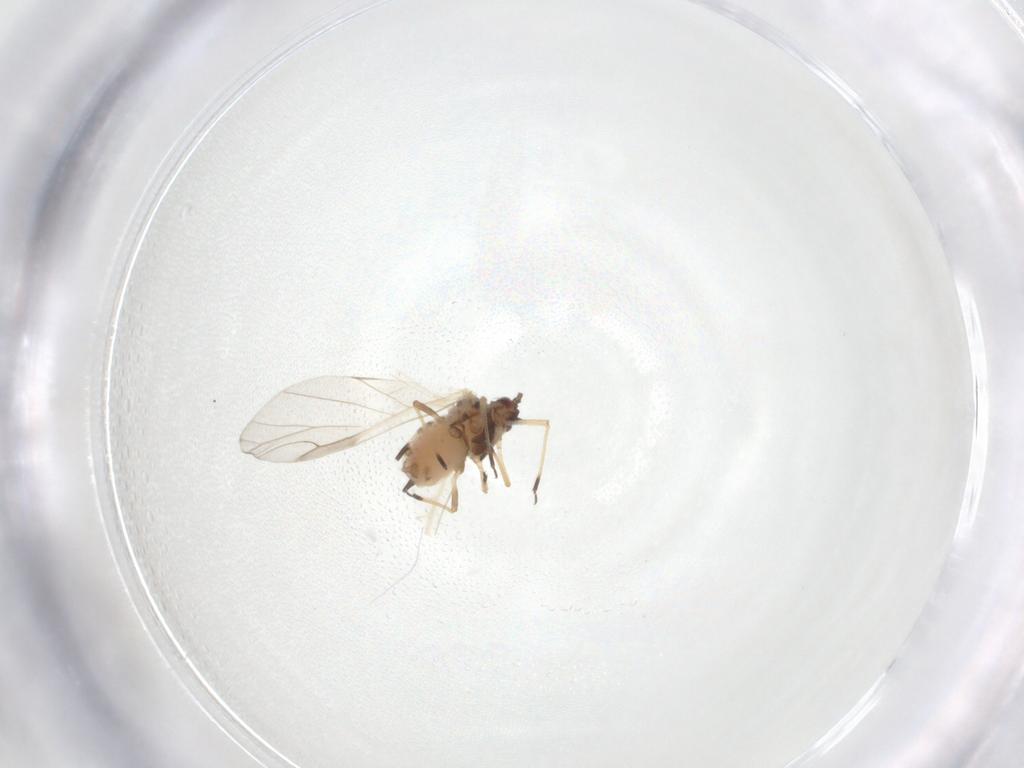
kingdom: Animalia
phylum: Arthropoda
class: Insecta
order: Hemiptera
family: Aphididae
